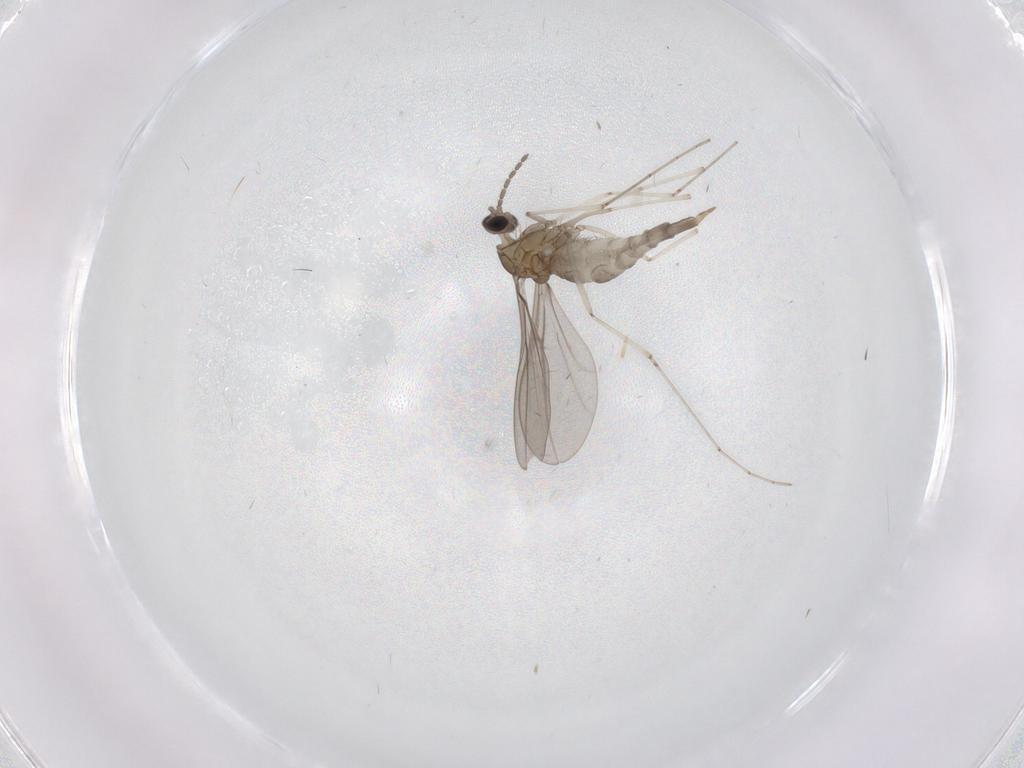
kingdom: Animalia
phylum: Arthropoda
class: Insecta
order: Diptera
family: Cecidomyiidae
